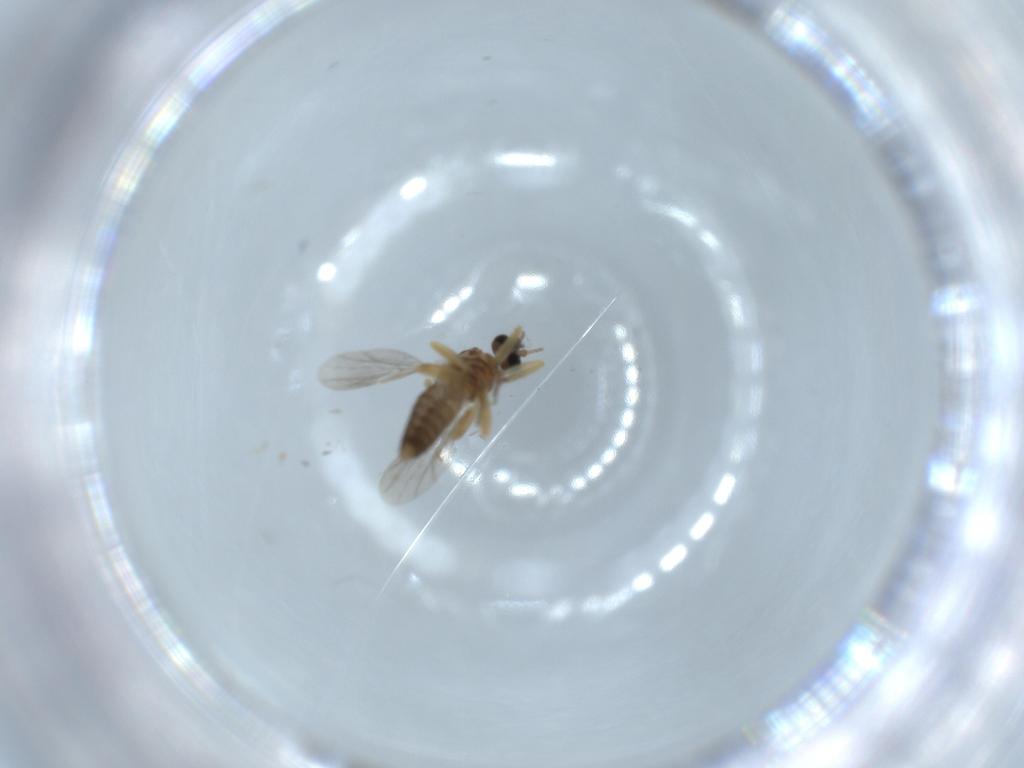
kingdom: Animalia
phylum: Arthropoda
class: Insecta
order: Diptera
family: Ceratopogonidae
